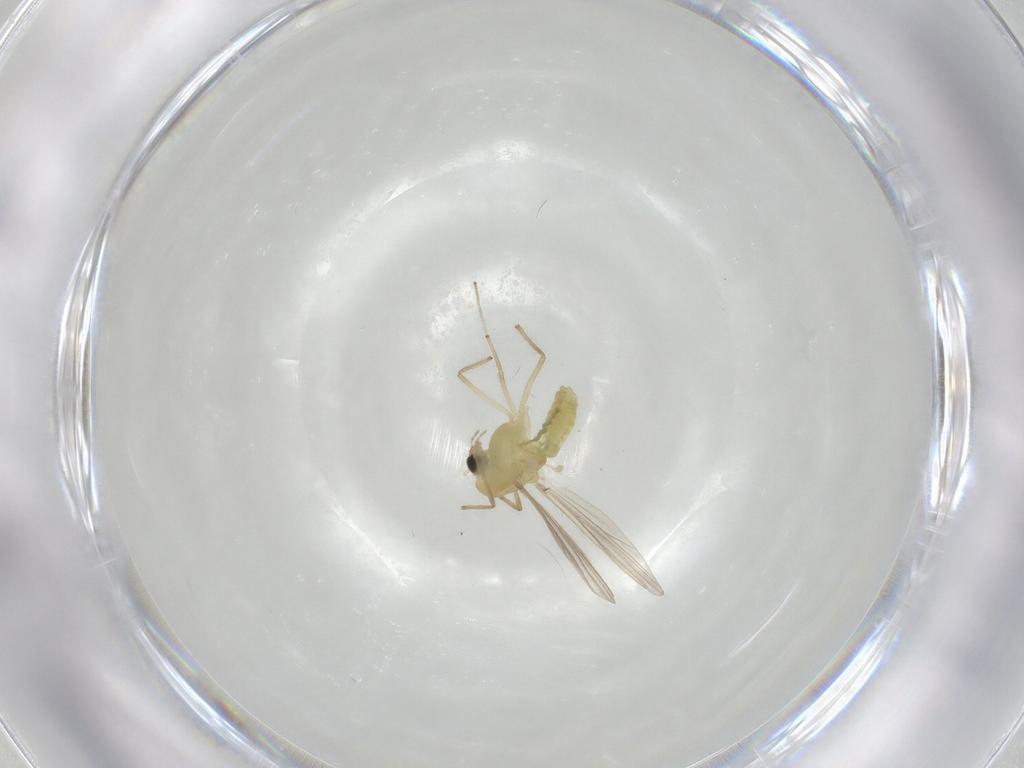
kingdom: Animalia
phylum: Arthropoda
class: Insecta
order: Diptera
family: Chironomidae
